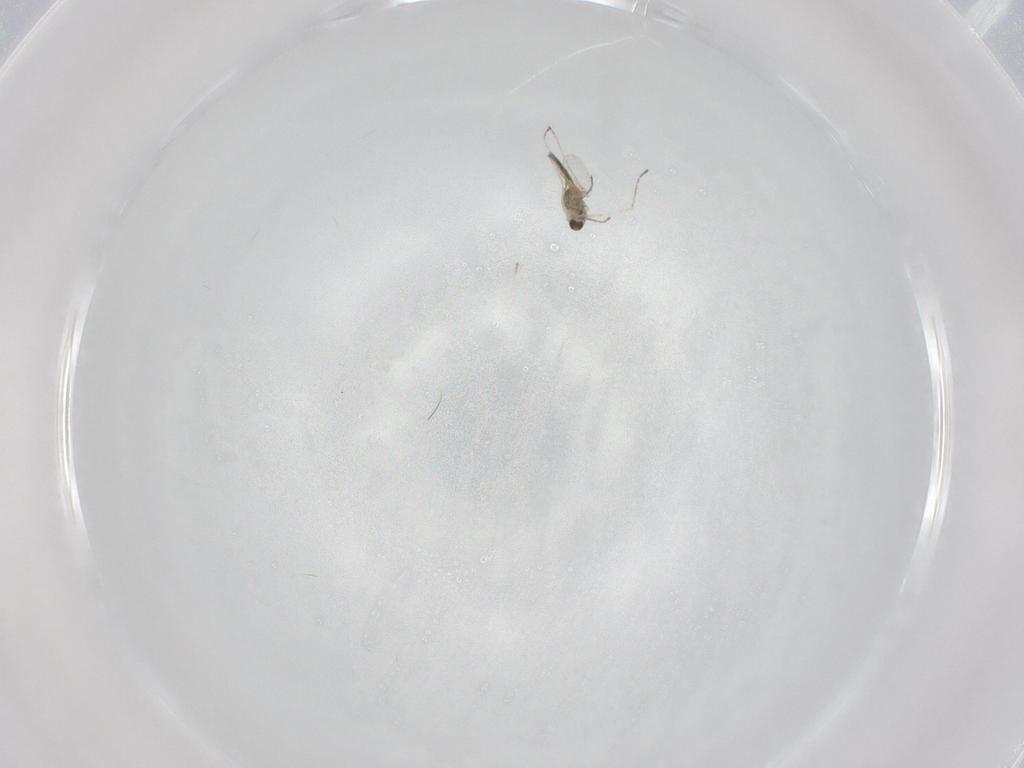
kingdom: Animalia
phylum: Arthropoda
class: Insecta
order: Diptera
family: Cecidomyiidae
